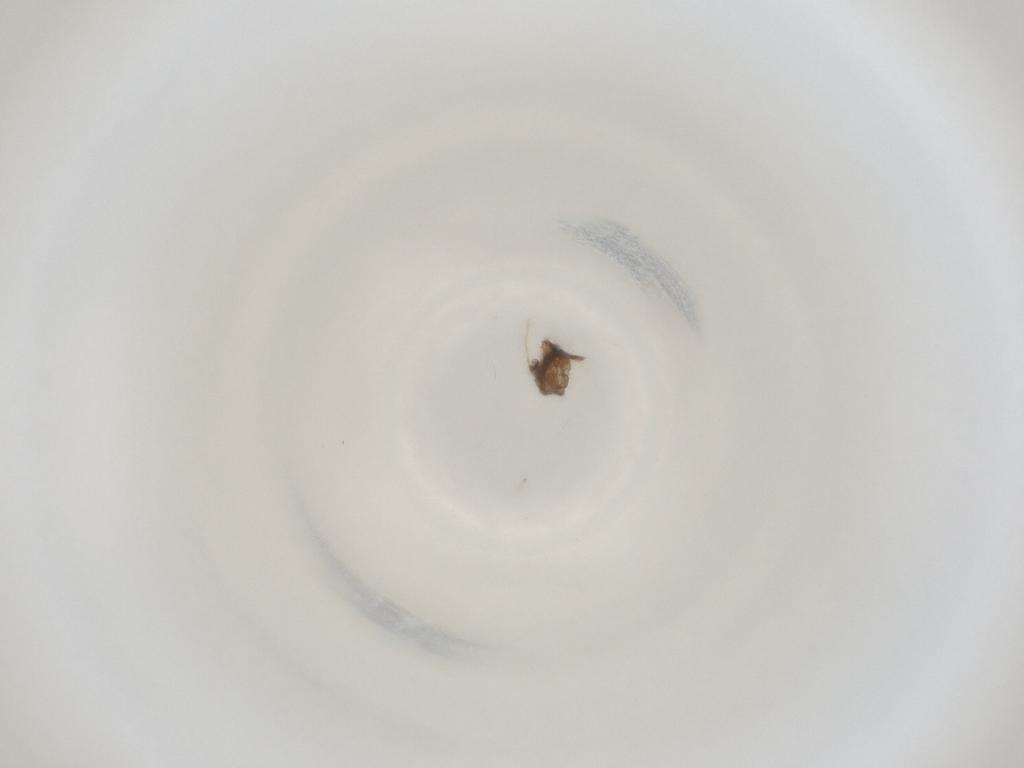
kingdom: Animalia
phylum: Arthropoda
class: Insecta
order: Diptera
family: Cecidomyiidae
